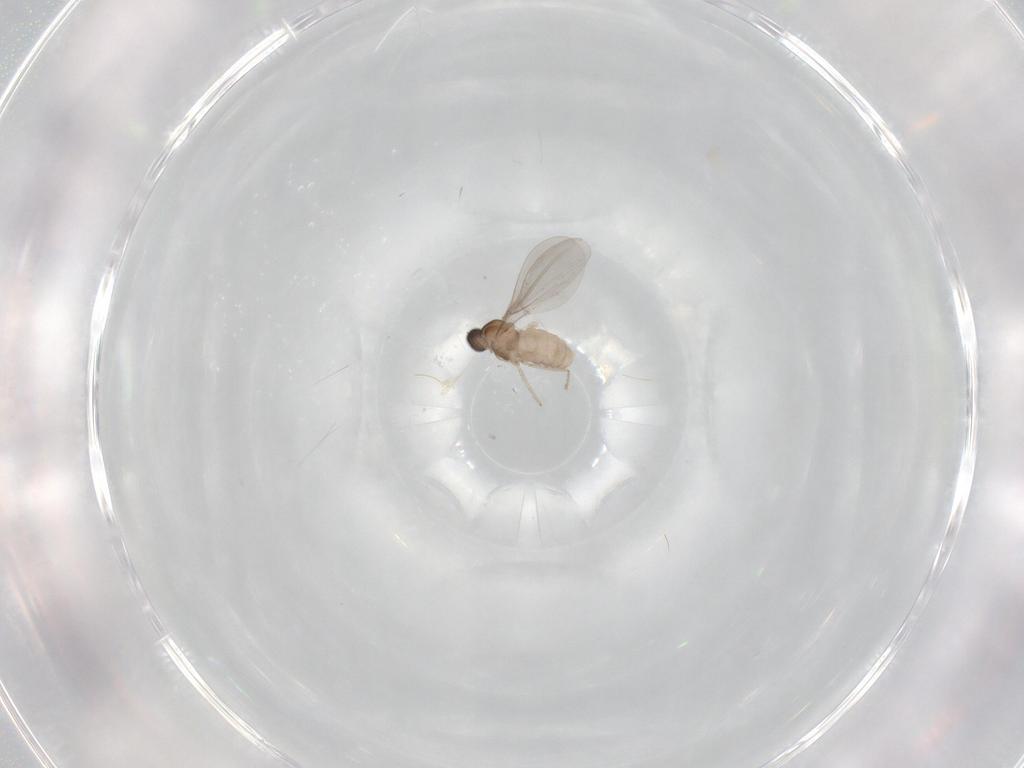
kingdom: Animalia
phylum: Arthropoda
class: Insecta
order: Diptera
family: Cecidomyiidae
